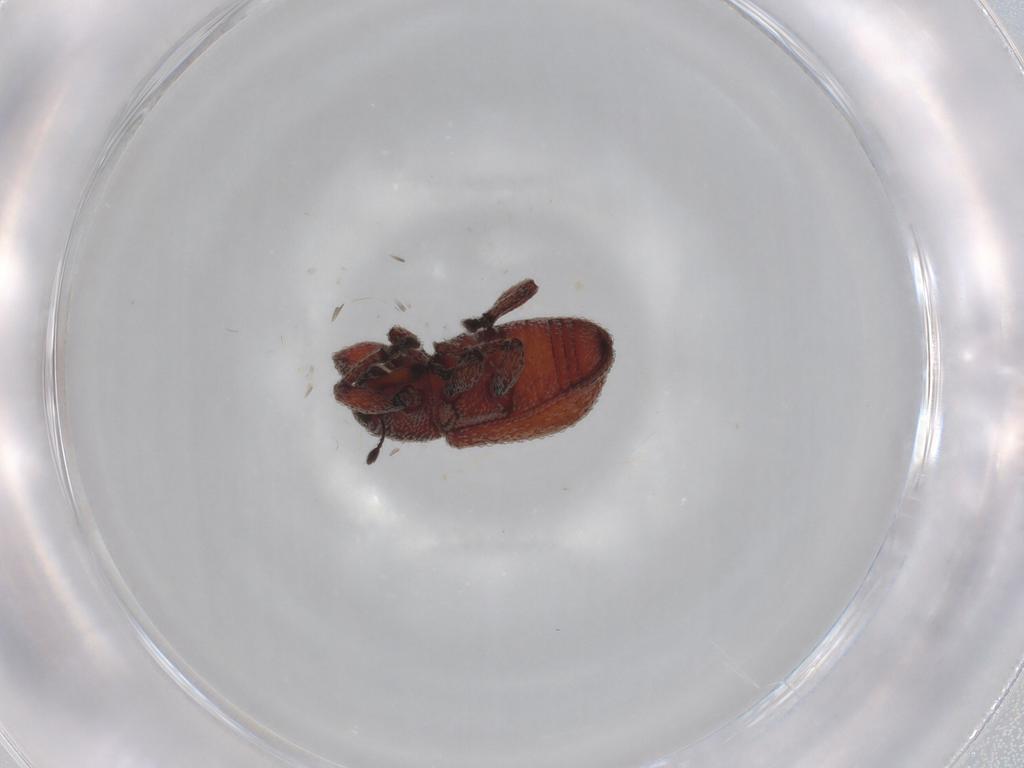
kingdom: Animalia
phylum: Arthropoda
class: Insecta
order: Coleoptera
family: Curculionidae
